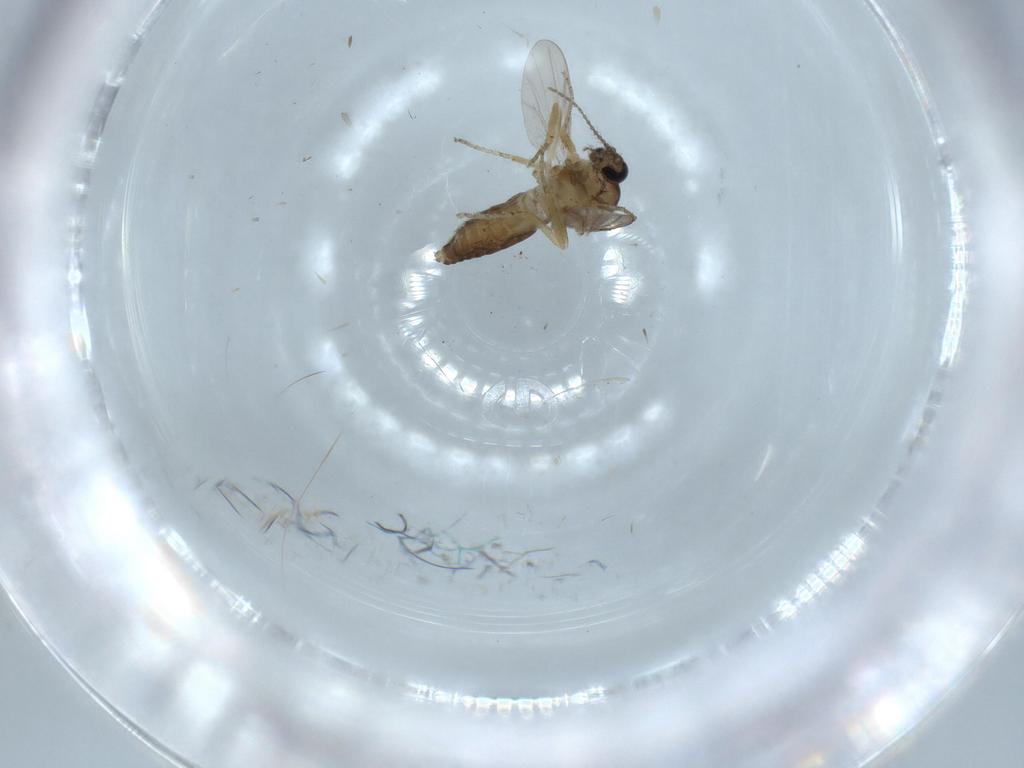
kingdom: Animalia
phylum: Arthropoda
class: Insecta
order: Diptera
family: Ceratopogonidae
